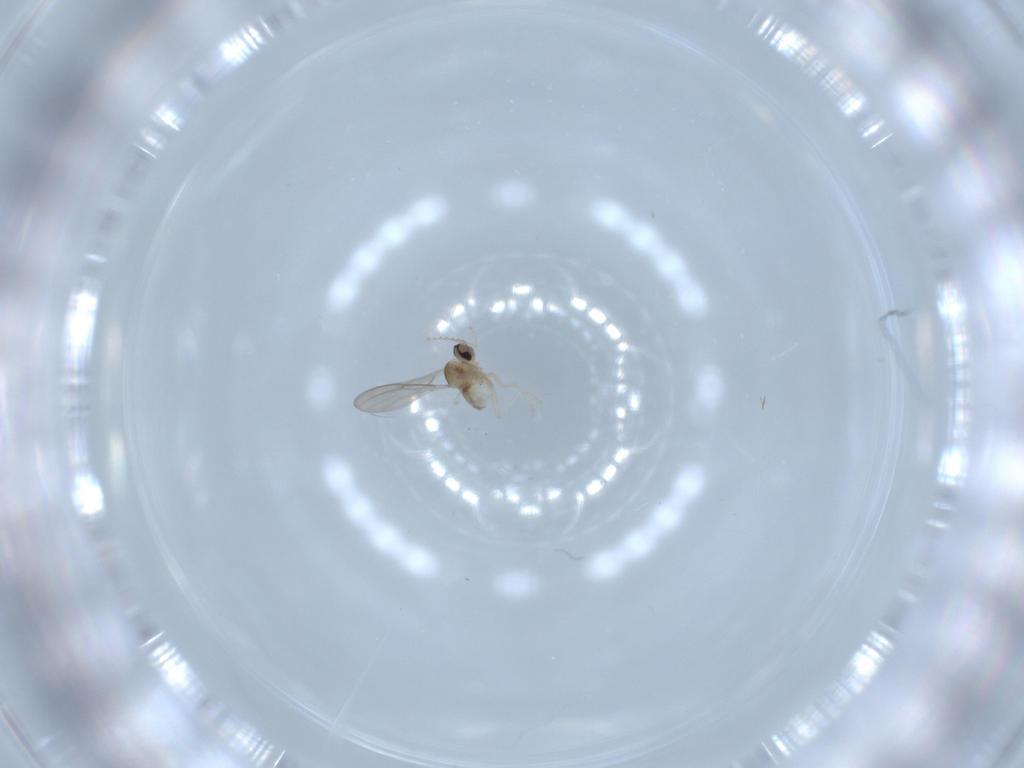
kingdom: Animalia
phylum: Arthropoda
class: Insecta
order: Diptera
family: Cecidomyiidae
